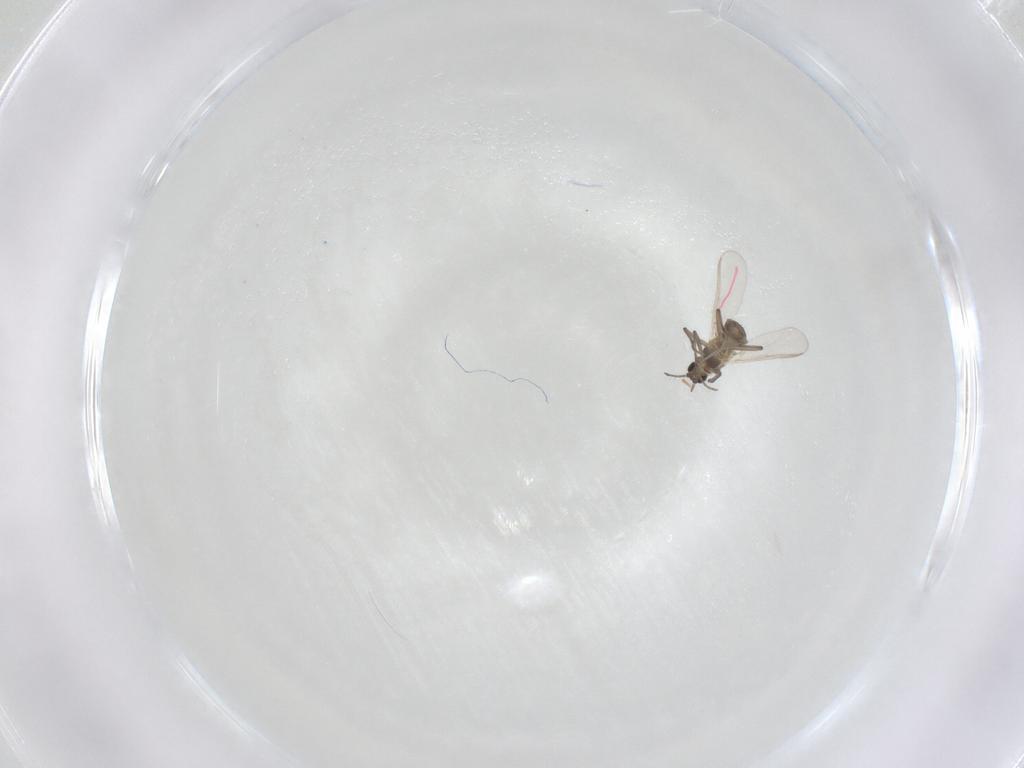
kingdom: Animalia
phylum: Arthropoda
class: Insecta
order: Diptera
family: Chironomidae
